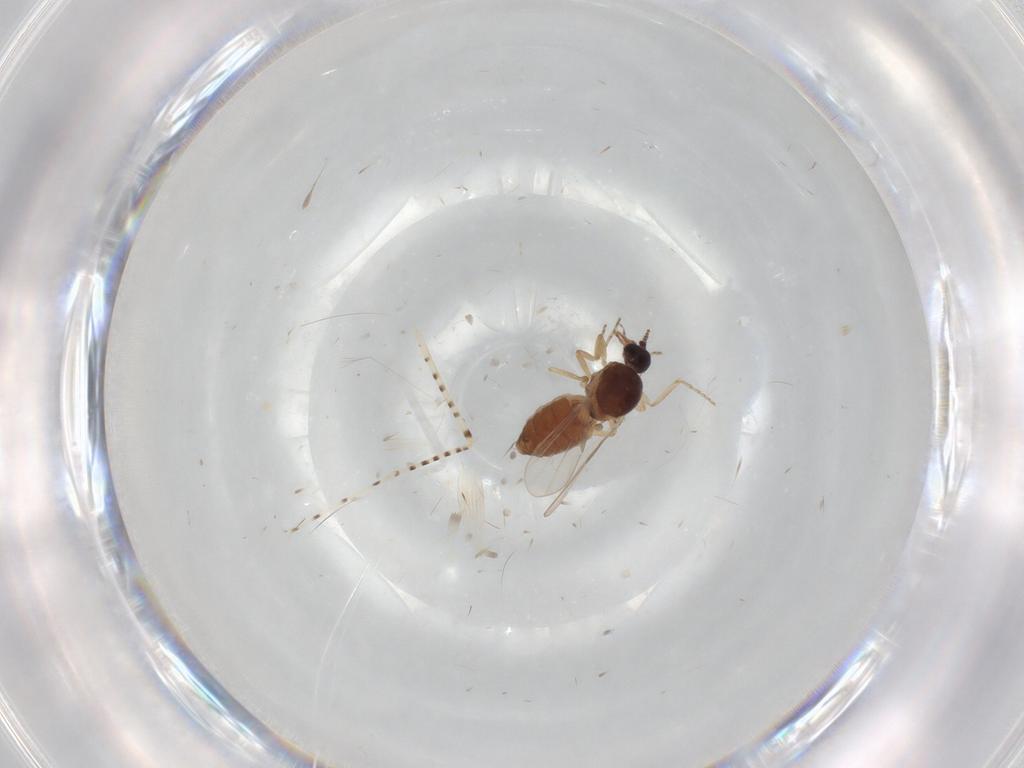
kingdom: Animalia
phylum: Arthropoda
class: Insecta
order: Diptera
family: Ceratopogonidae
